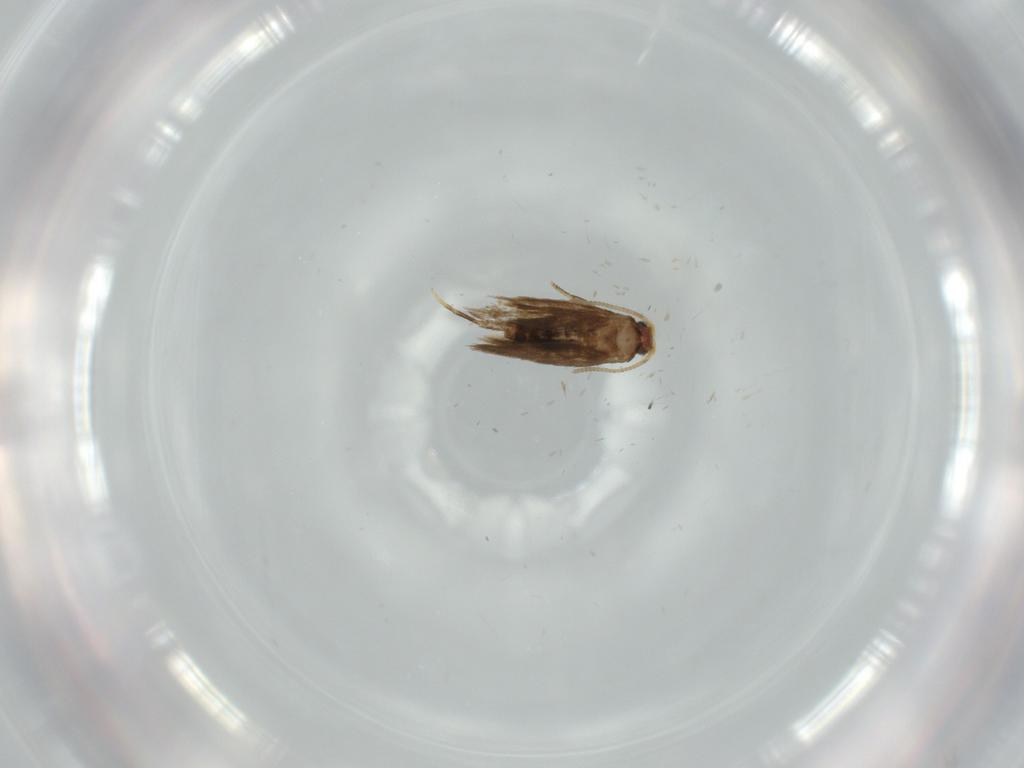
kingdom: Animalia
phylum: Arthropoda
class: Insecta
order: Lepidoptera
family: Nepticulidae
